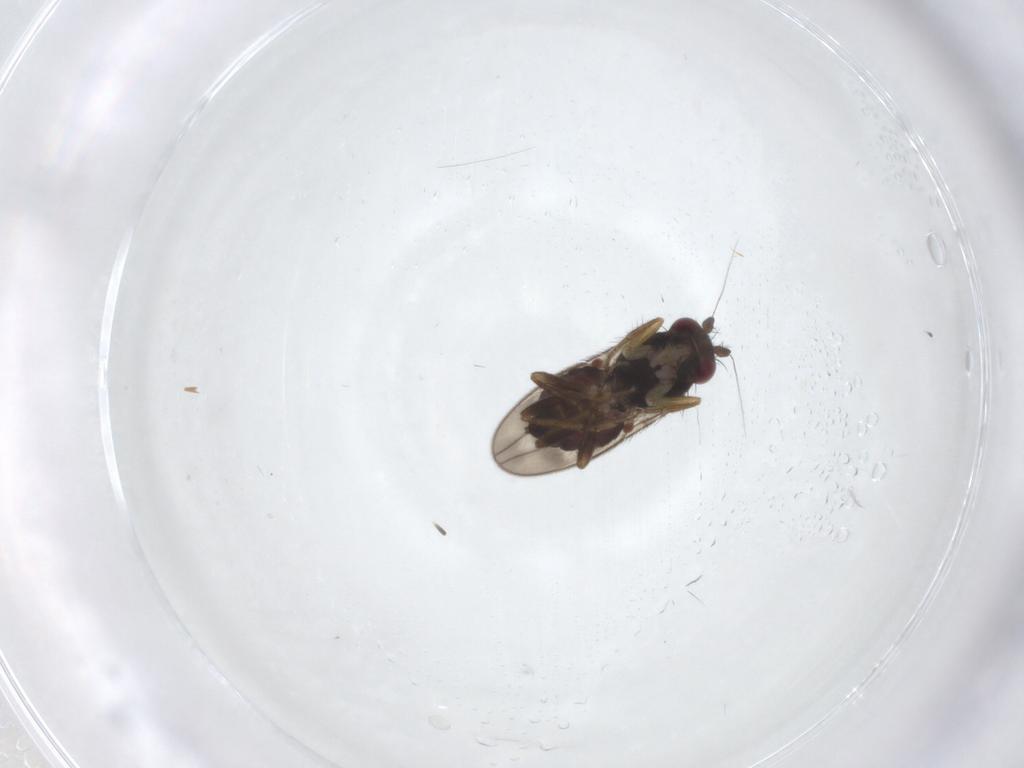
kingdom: Animalia
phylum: Arthropoda
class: Insecta
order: Diptera
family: Sphaeroceridae
